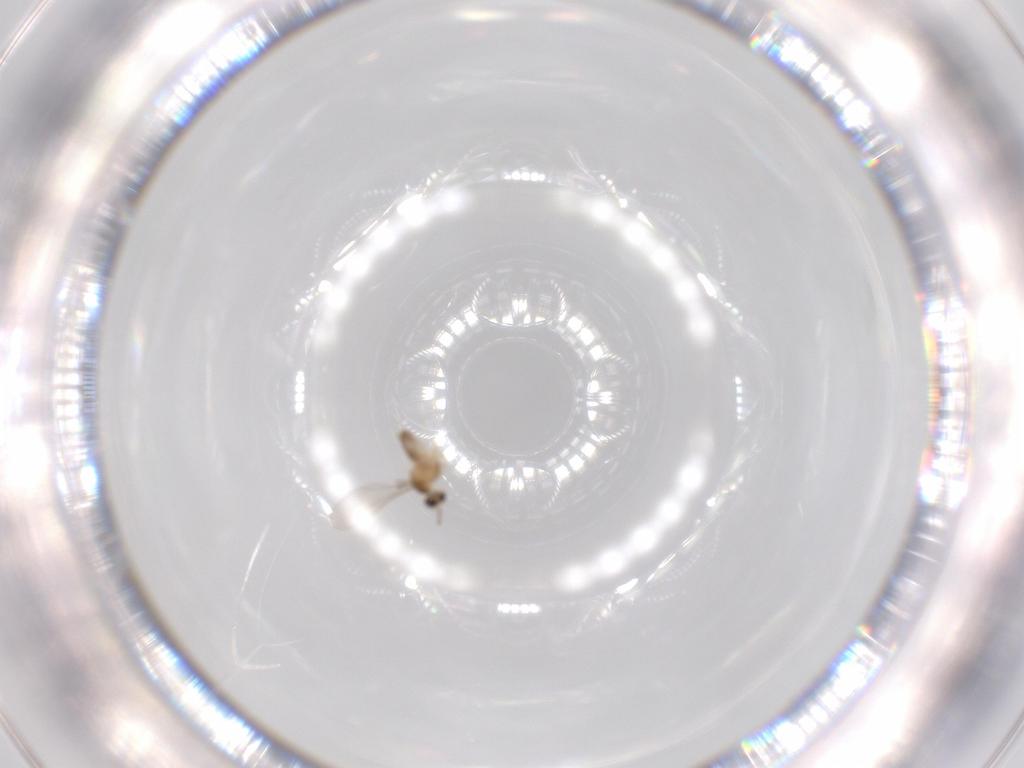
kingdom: Animalia
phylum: Arthropoda
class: Insecta
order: Diptera
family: Cecidomyiidae
